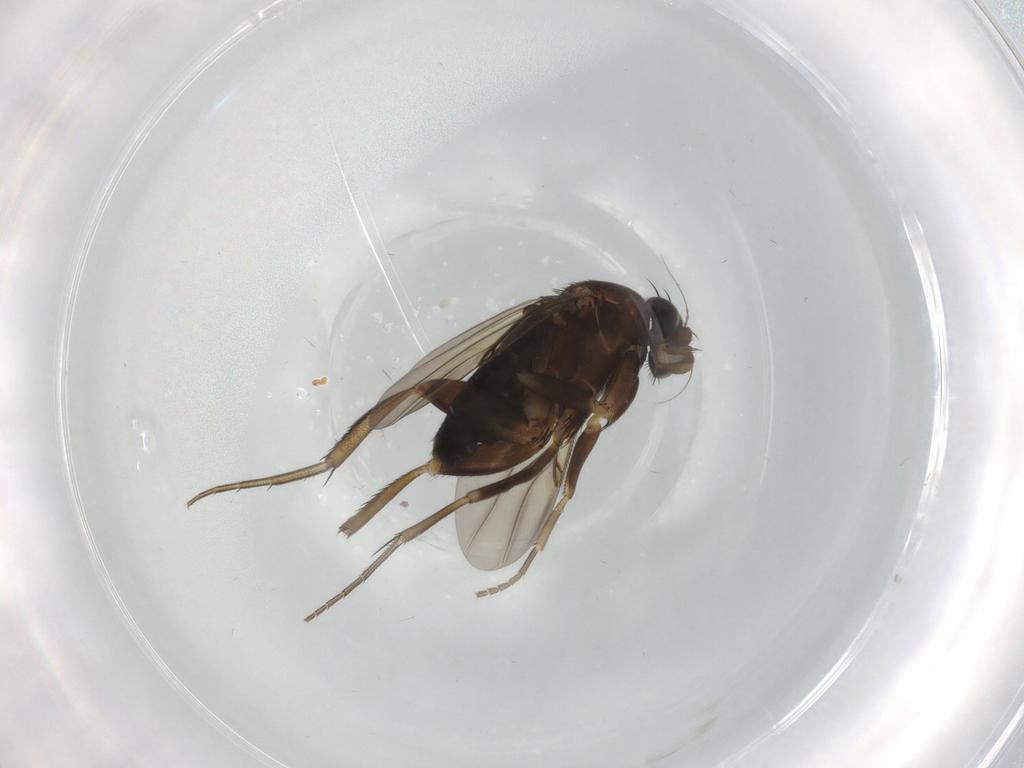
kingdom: Animalia
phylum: Arthropoda
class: Insecta
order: Diptera
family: Phoridae
